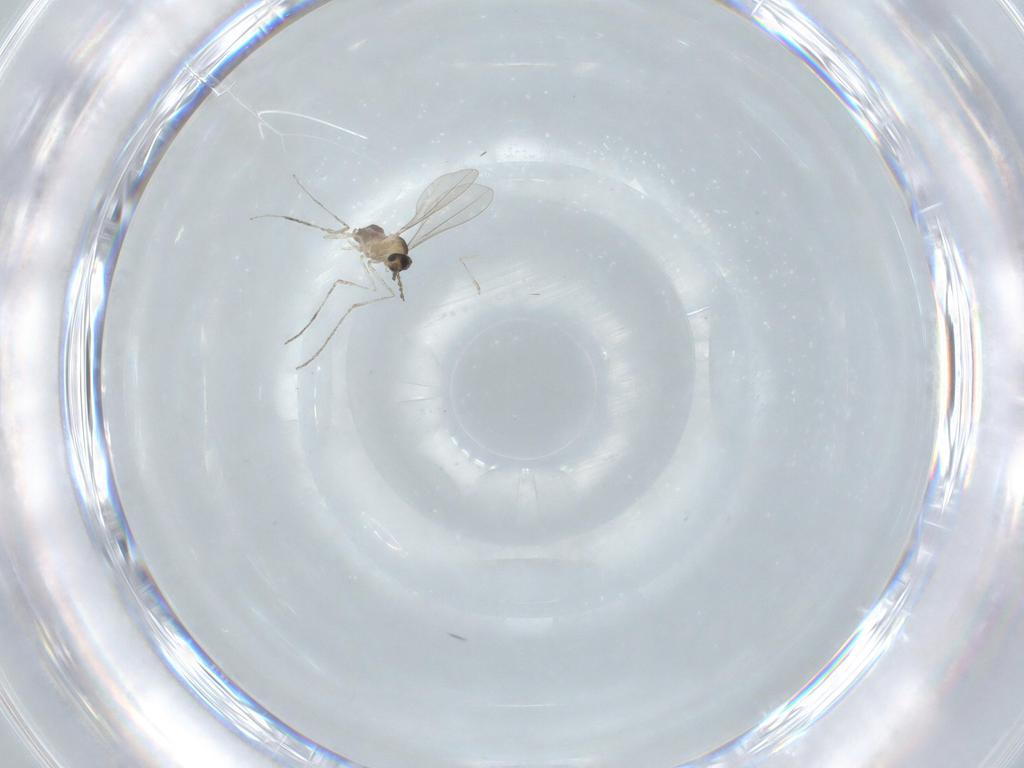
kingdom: Animalia
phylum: Arthropoda
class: Insecta
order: Diptera
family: Cecidomyiidae
